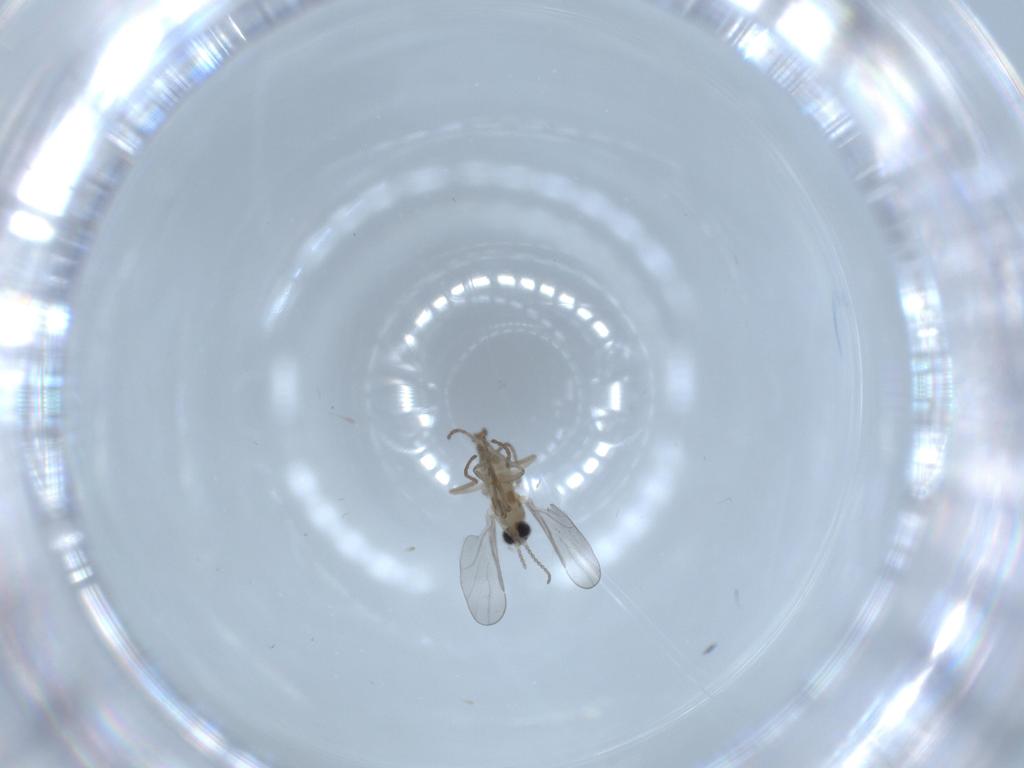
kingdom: Animalia
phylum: Arthropoda
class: Insecta
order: Diptera
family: Cecidomyiidae
